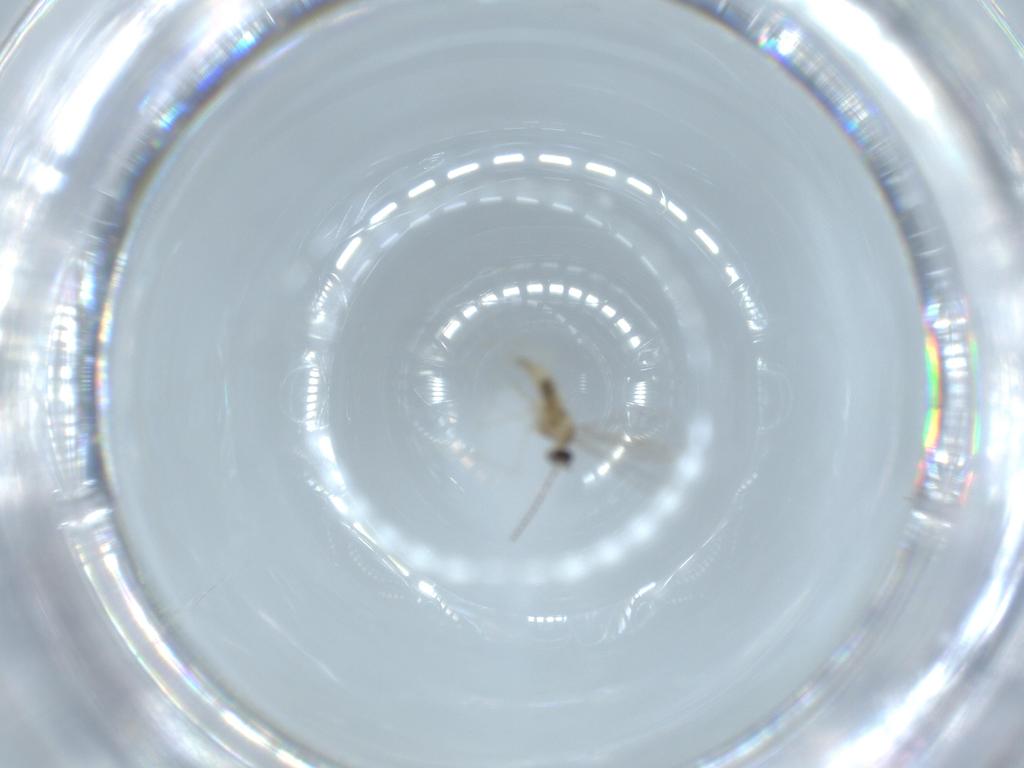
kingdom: Animalia
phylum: Arthropoda
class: Insecta
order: Diptera
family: Cecidomyiidae
